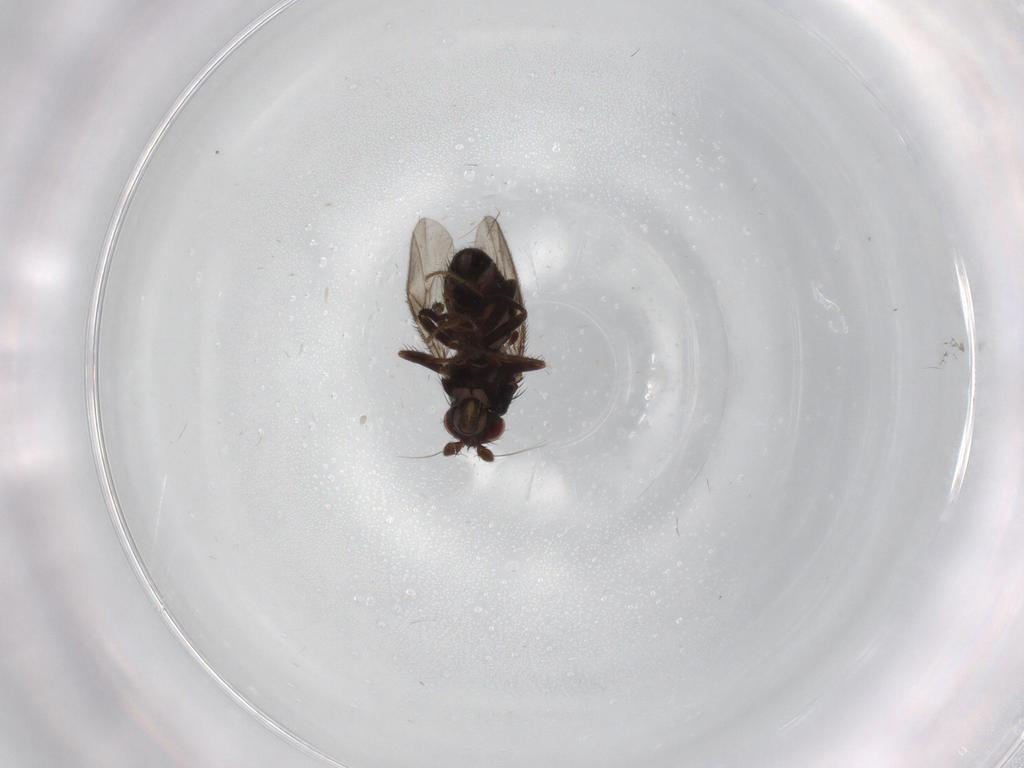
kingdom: Animalia
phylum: Arthropoda
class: Insecta
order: Diptera
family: Sphaeroceridae
